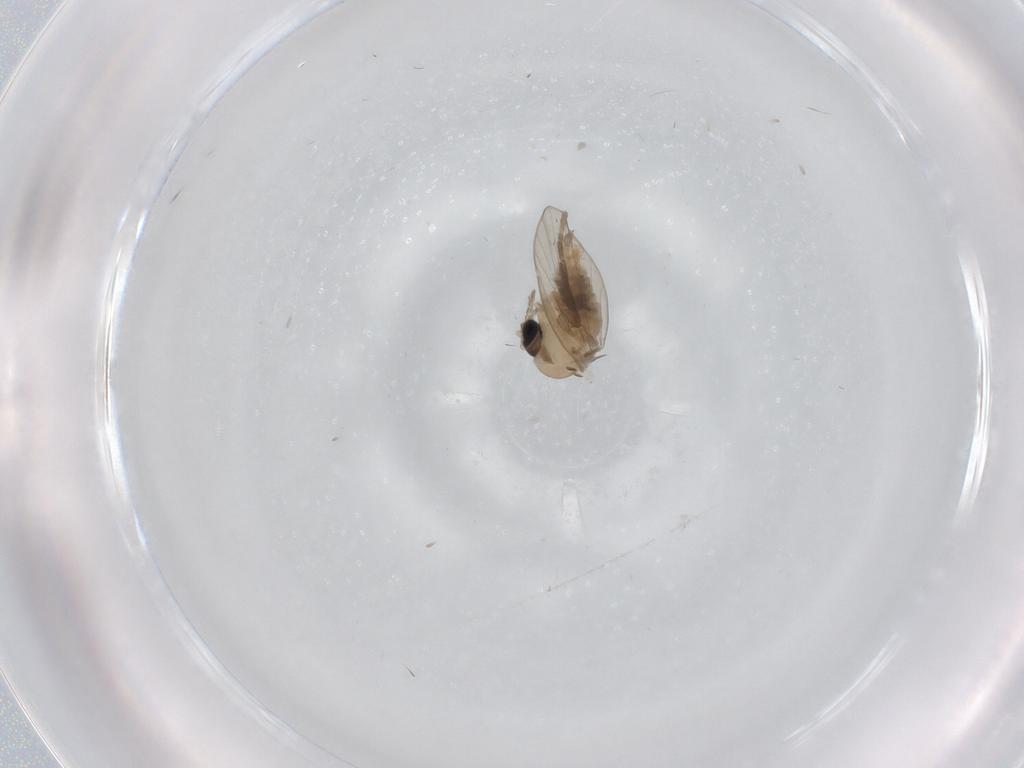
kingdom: Animalia
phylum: Arthropoda
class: Insecta
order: Diptera
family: Psychodidae
